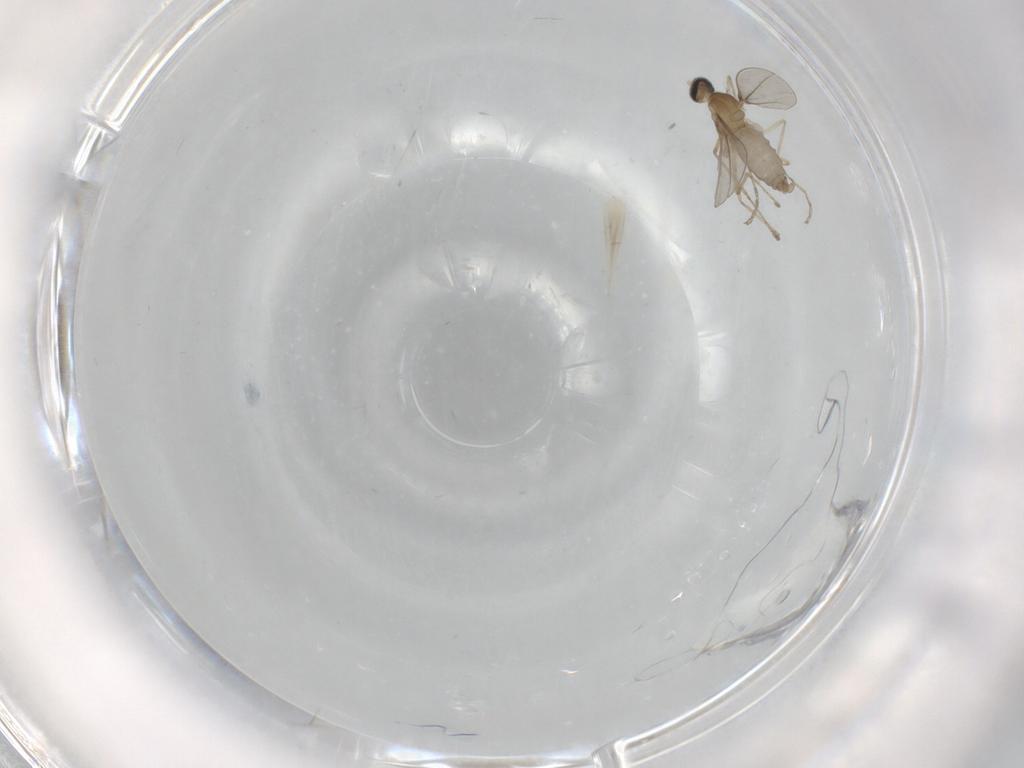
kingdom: Animalia
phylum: Arthropoda
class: Insecta
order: Diptera
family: Cecidomyiidae
